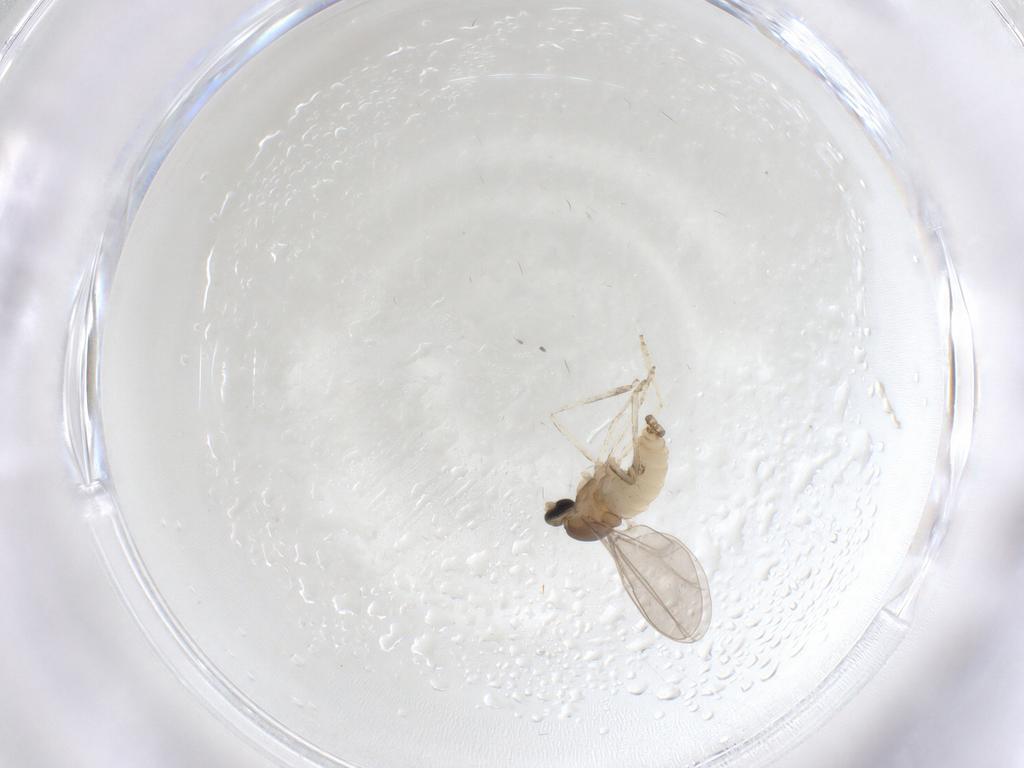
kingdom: Animalia
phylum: Arthropoda
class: Insecta
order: Diptera
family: Cecidomyiidae
